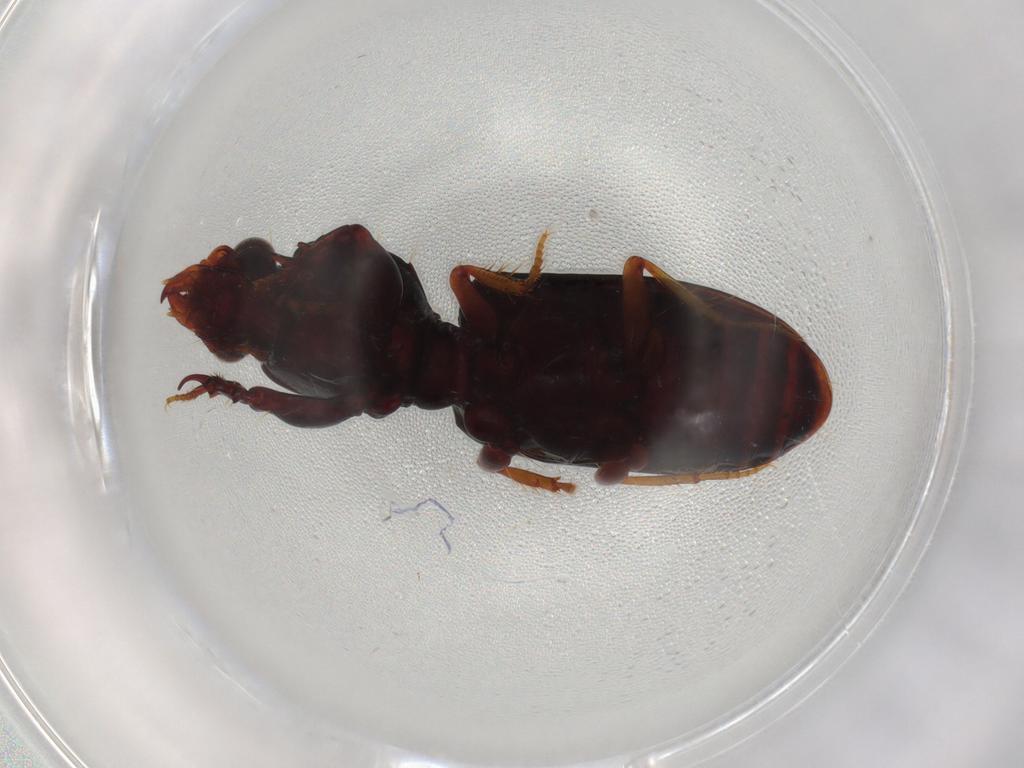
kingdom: Animalia
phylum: Arthropoda
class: Insecta
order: Coleoptera
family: Carabidae
